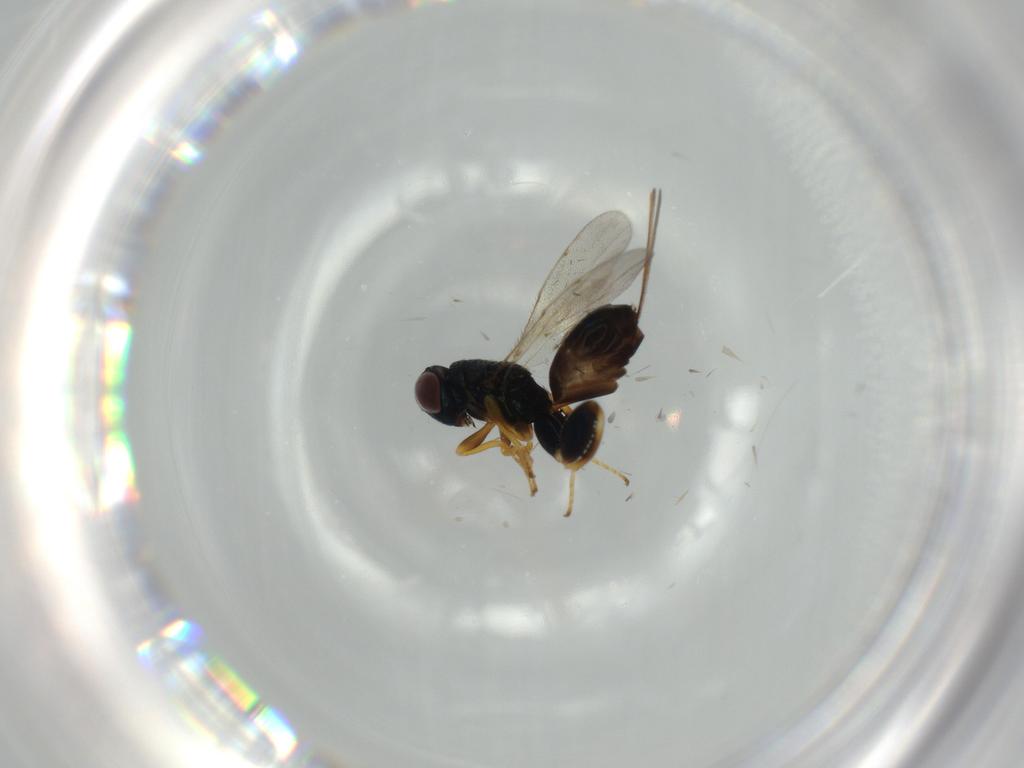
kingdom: Animalia
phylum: Arthropoda
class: Insecta
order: Hymenoptera
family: Torymidae
